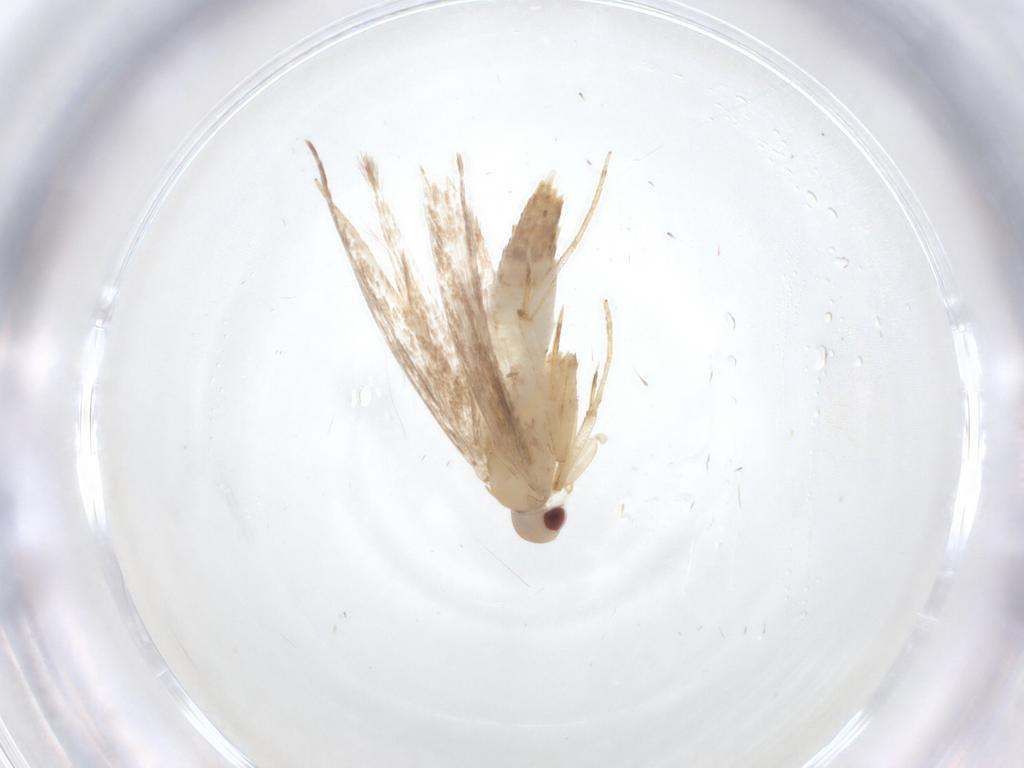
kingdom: Animalia
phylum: Arthropoda
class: Insecta
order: Lepidoptera
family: Cosmopterigidae
